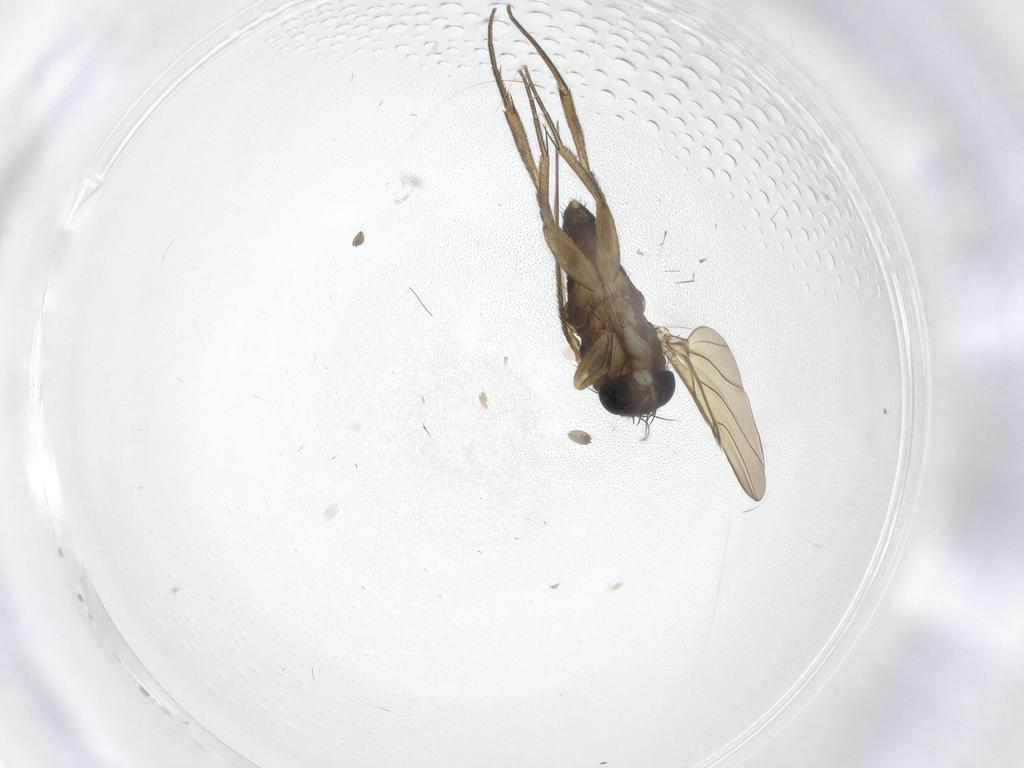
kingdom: Animalia
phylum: Arthropoda
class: Insecta
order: Diptera
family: Phoridae
